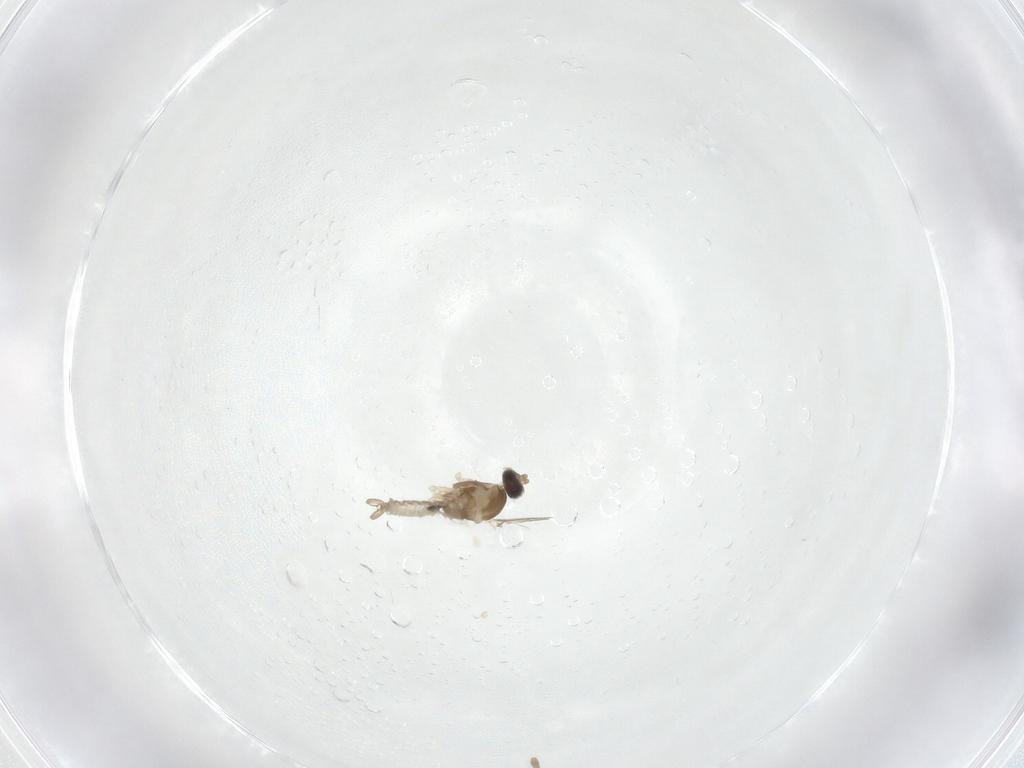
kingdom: Animalia
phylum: Arthropoda
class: Insecta
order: Diptera
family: Cecidomyiidae
